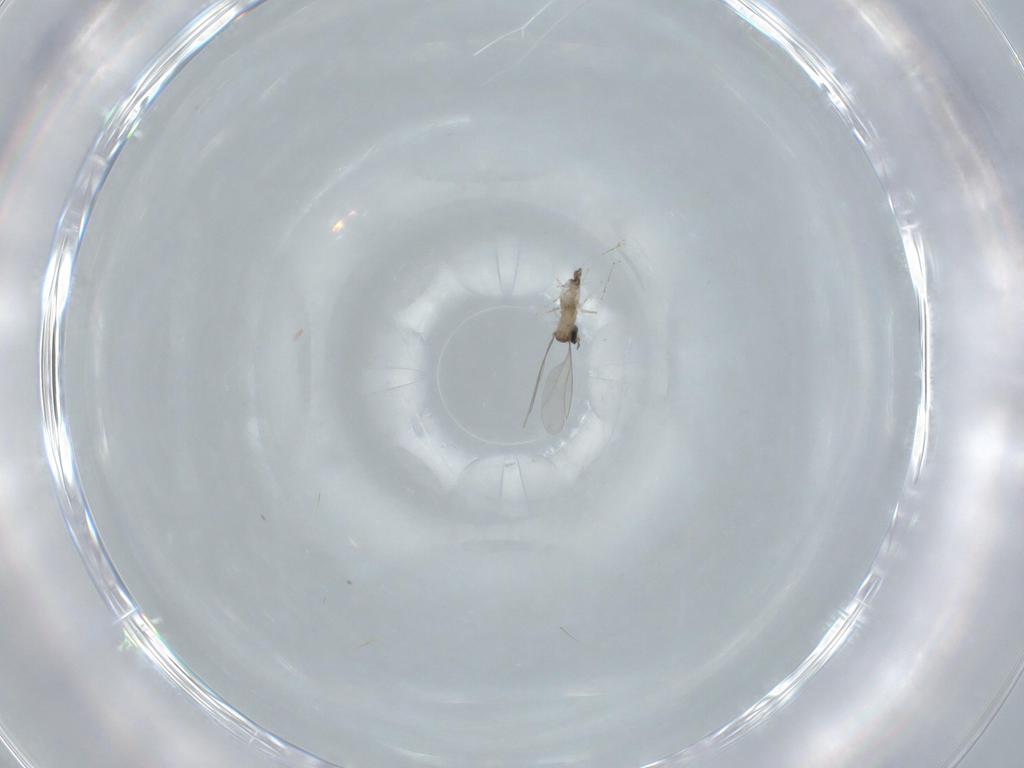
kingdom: Animalia
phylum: Arthropoda
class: Insecta
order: Diptera
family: Cecidomyiidae
